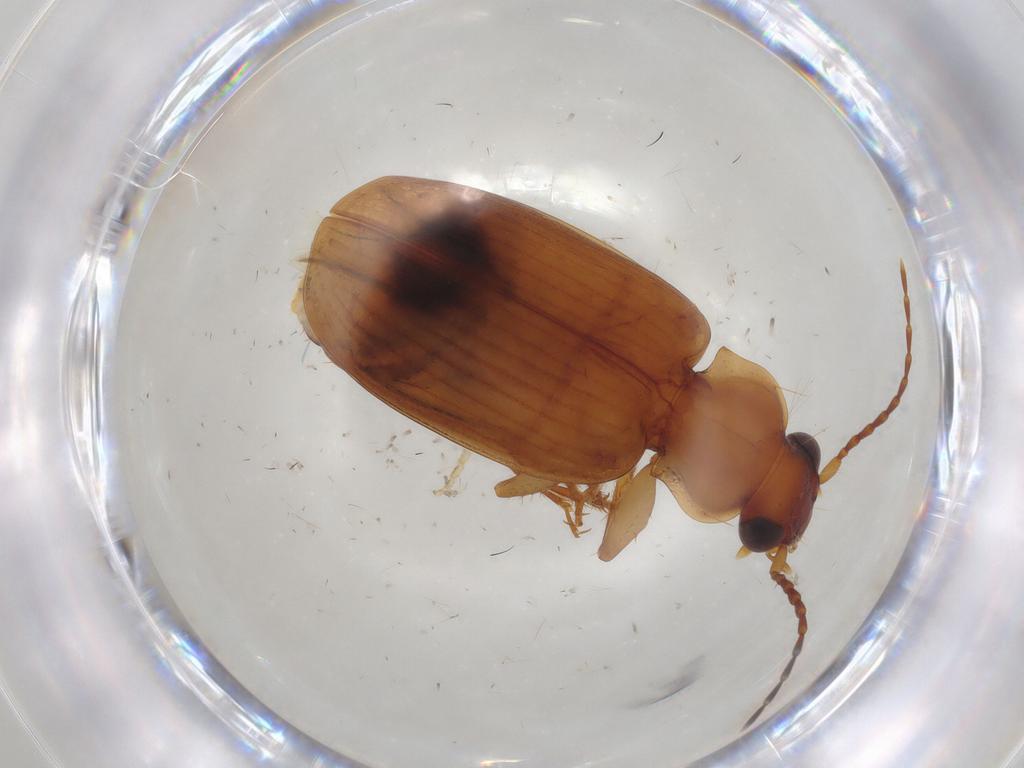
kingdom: Animalia
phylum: Arthropoda
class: Insecta
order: Coleoptera
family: Carabidae
